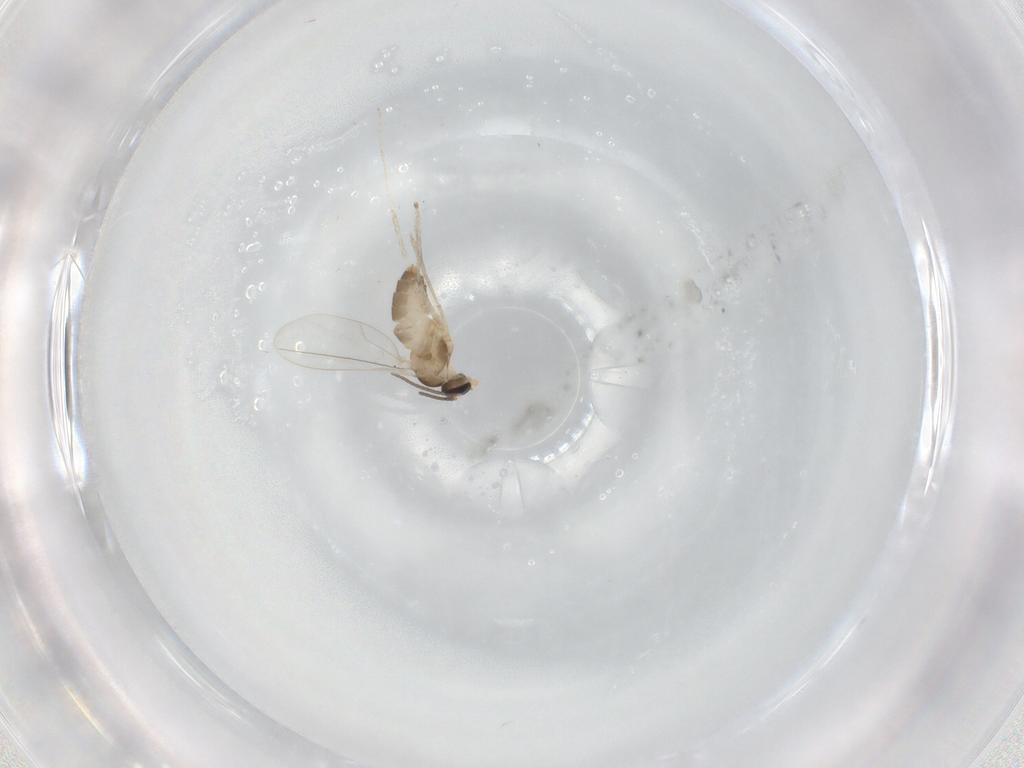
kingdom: Animalia
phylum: Arthropoda
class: Insecta
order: Diptera
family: Cecidomyiidae
